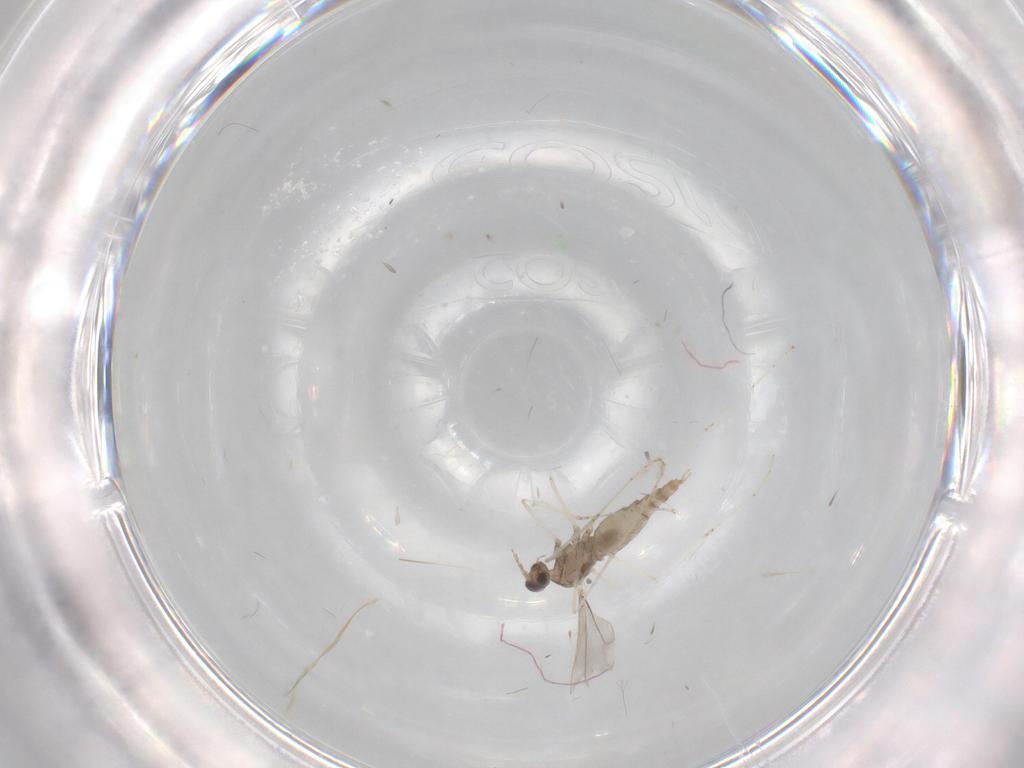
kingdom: Animalia
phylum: Arthropoda
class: Insecta
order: Diptera
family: Cecidomyiidae
